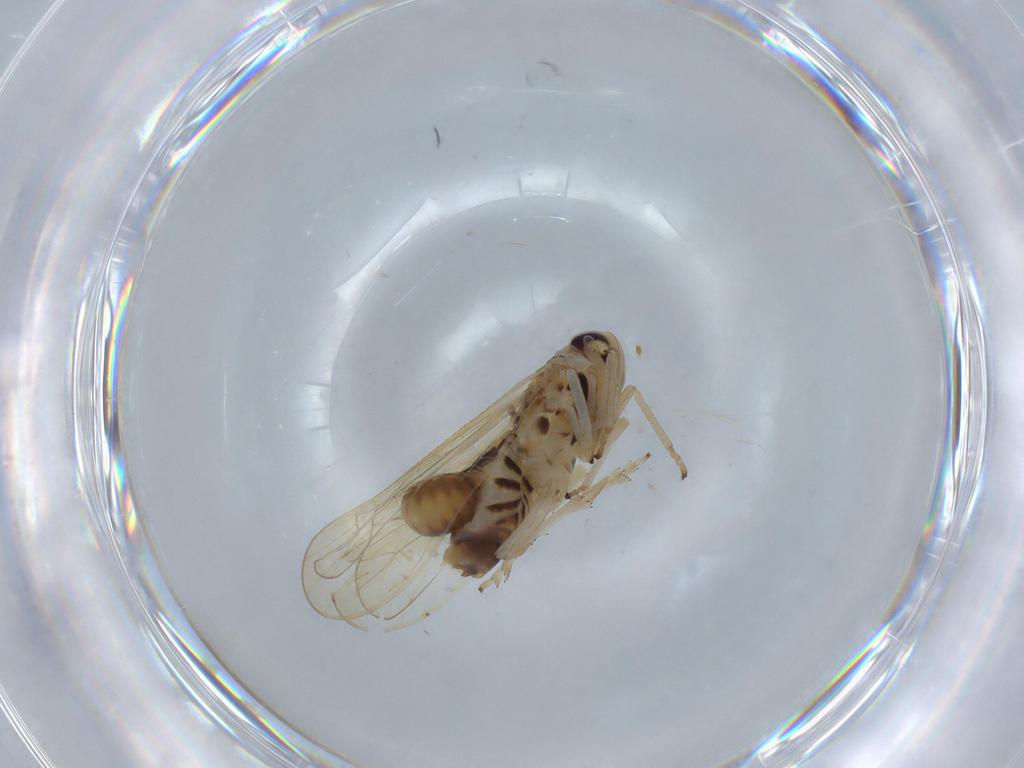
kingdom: Animalia
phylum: Arthropoda
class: Insecta
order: Hemiptera
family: Delphacidae
